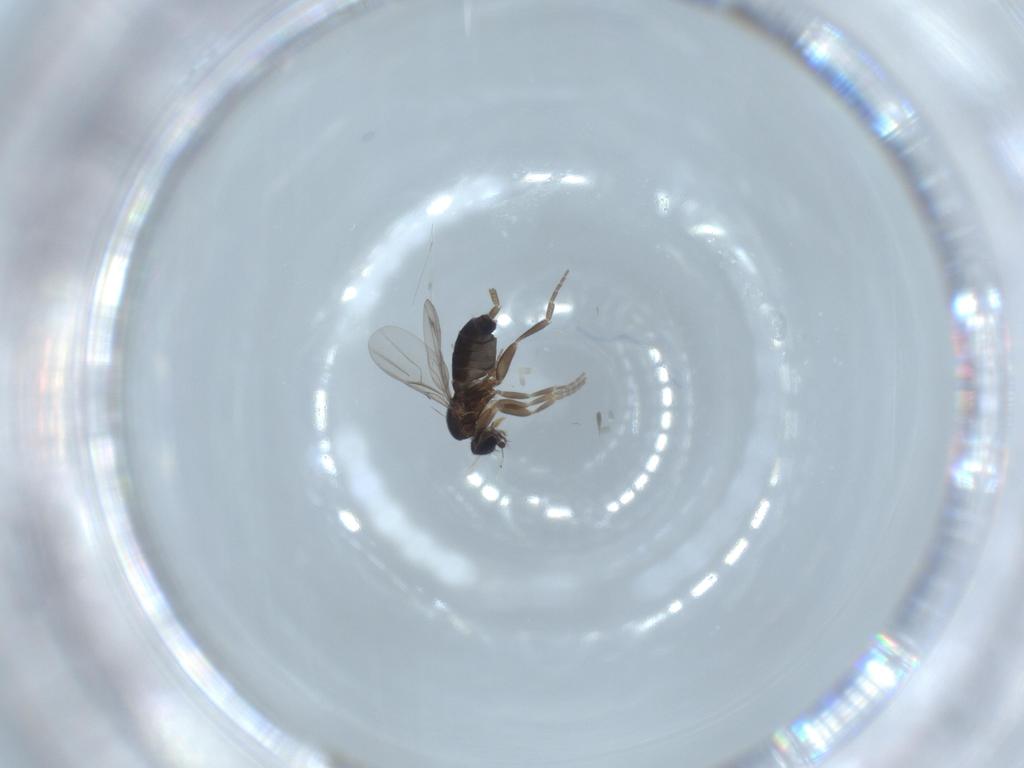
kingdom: Animalia
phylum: Arthropoda
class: Insecta
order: Diptera
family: Phoridae
